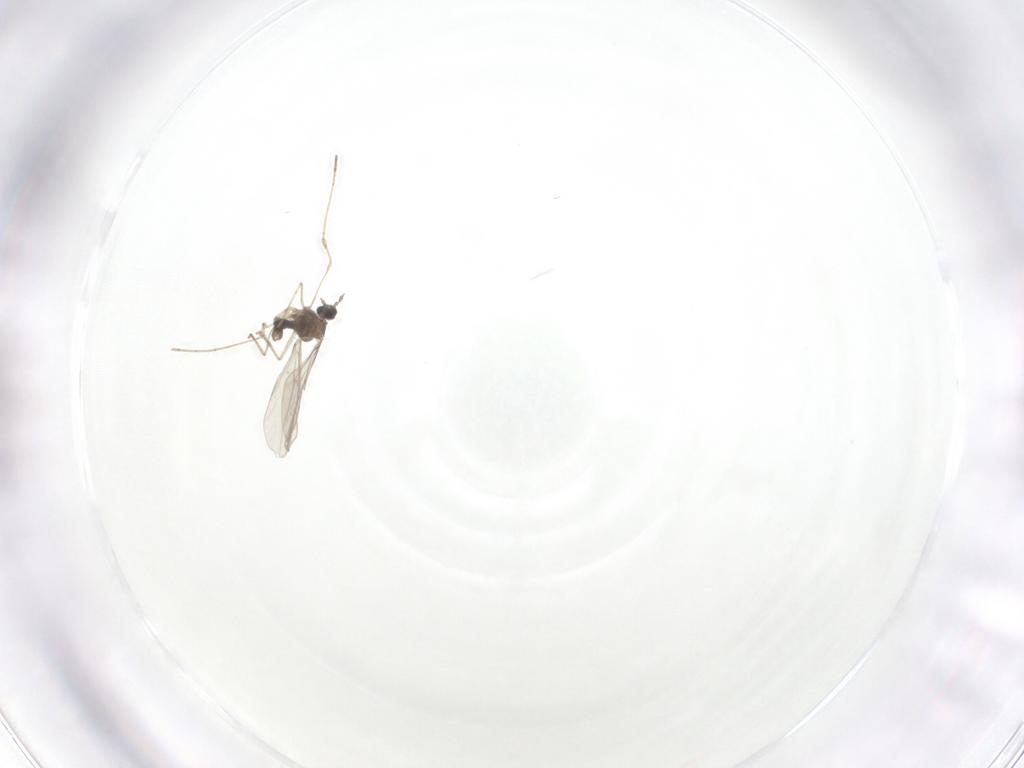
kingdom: Animalia
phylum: Arthropoda
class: Insecta
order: Diptera
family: Cecidomyiidae
